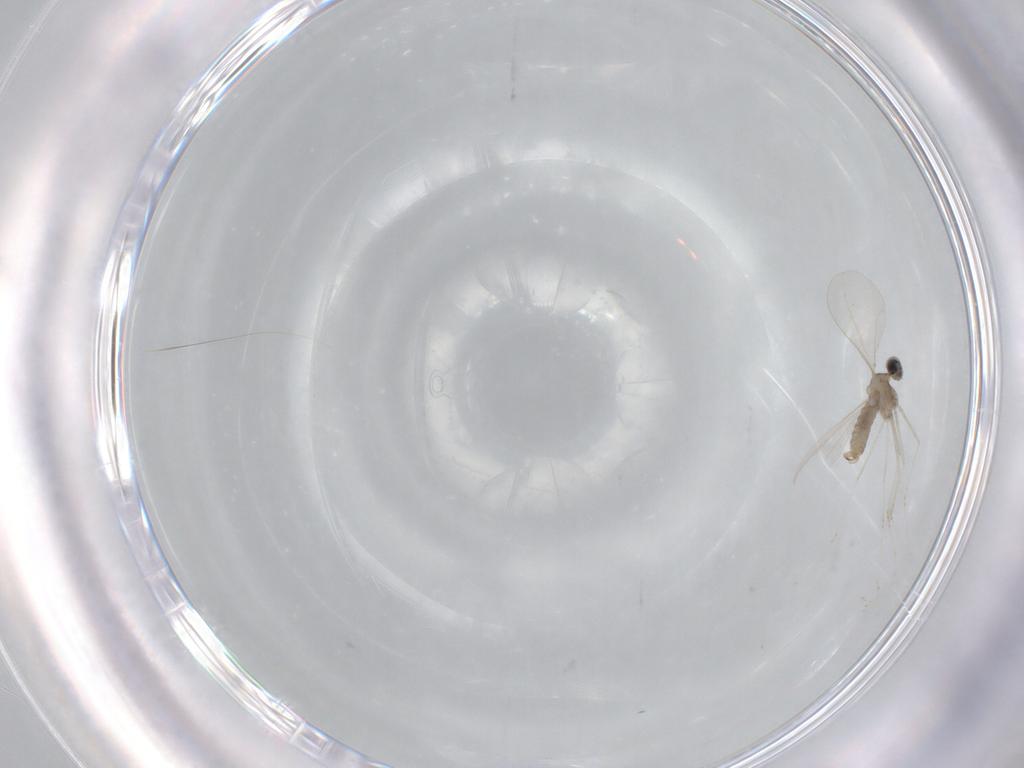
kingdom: Animalia
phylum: Arthropoda
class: Insecta
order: Diptera
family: Cecidomyiidae
